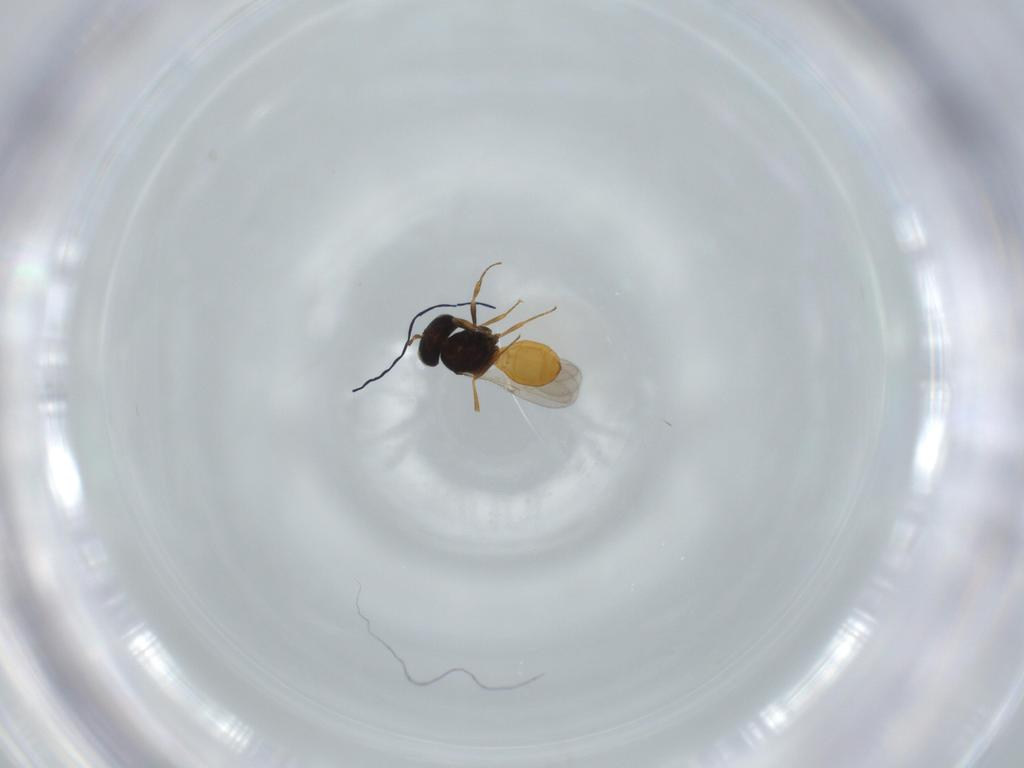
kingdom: Animalia
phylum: Arthropoda
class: Insecta
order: Hymenoptera
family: Scelionidae
